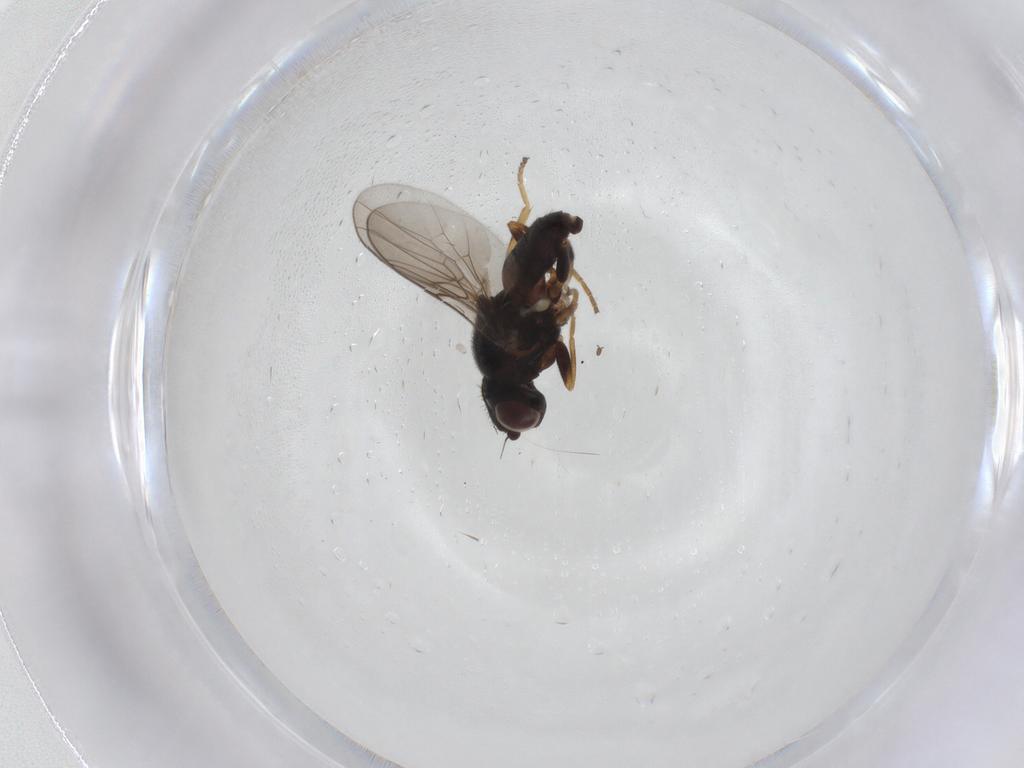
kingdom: Animalia
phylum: Arthropoda
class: Insecta
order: Diptera
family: Chloropidae
